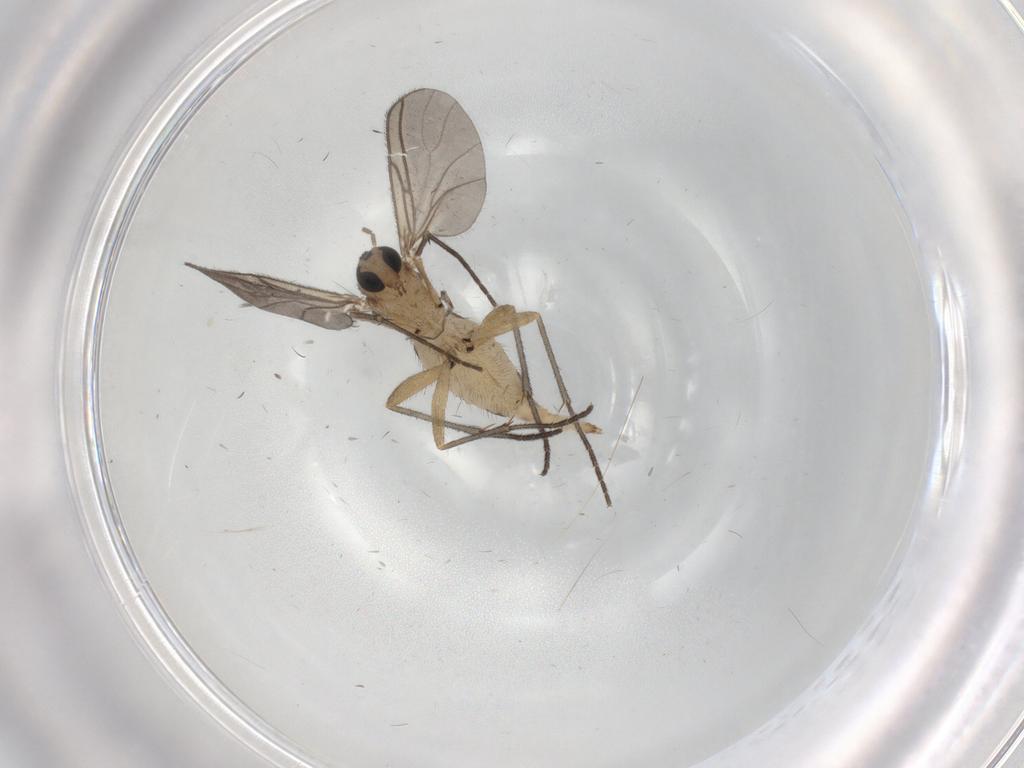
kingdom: Animalia
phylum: Arthropoda
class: Insecta
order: Diptera
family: Sciaridae
